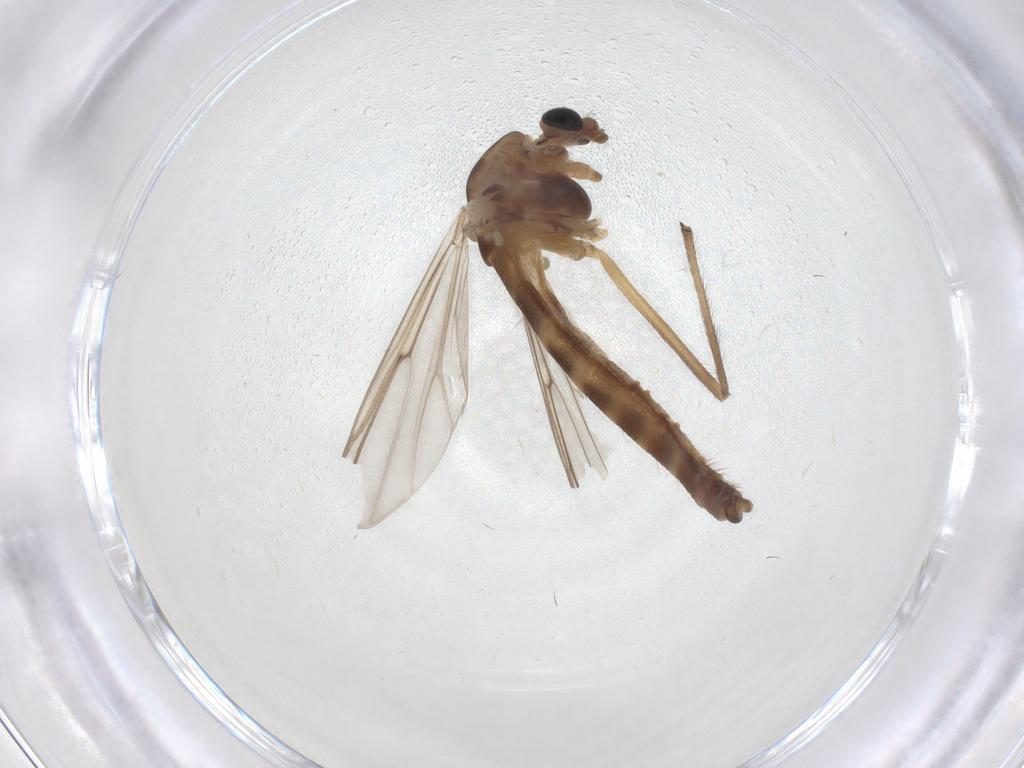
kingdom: Animalia
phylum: Arthropoda
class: Insecta
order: Diptera
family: Chironomidae
